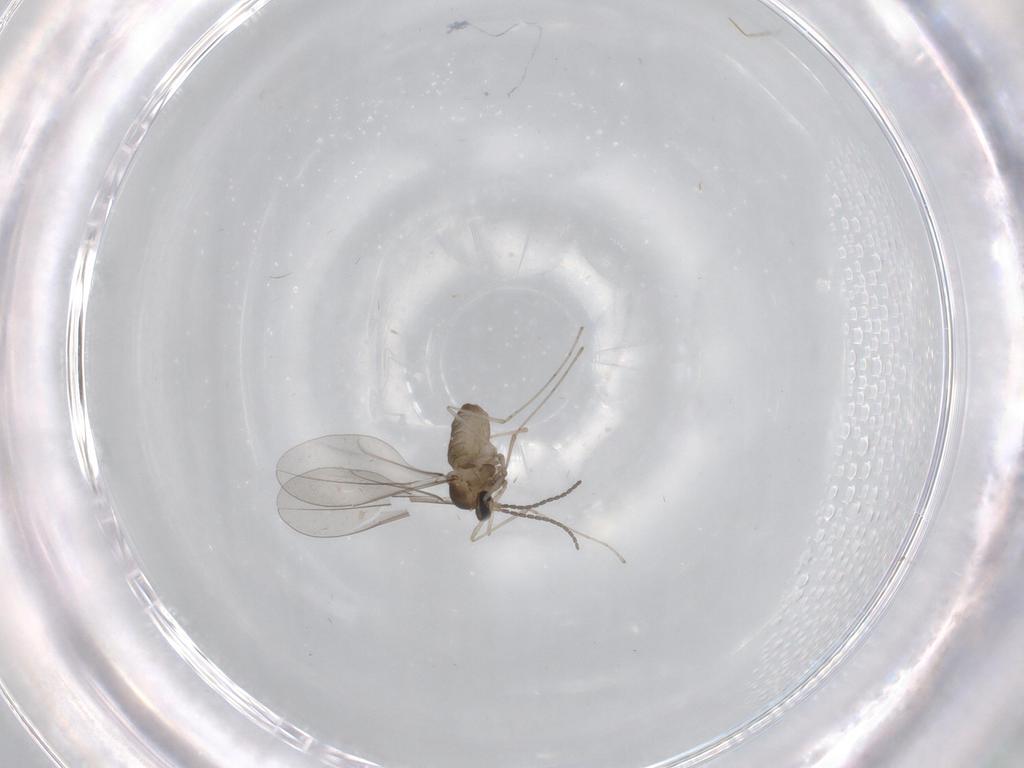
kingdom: Animalia
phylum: Arthropoda
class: Insecta
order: Diptera
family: Cecidomyiidae
